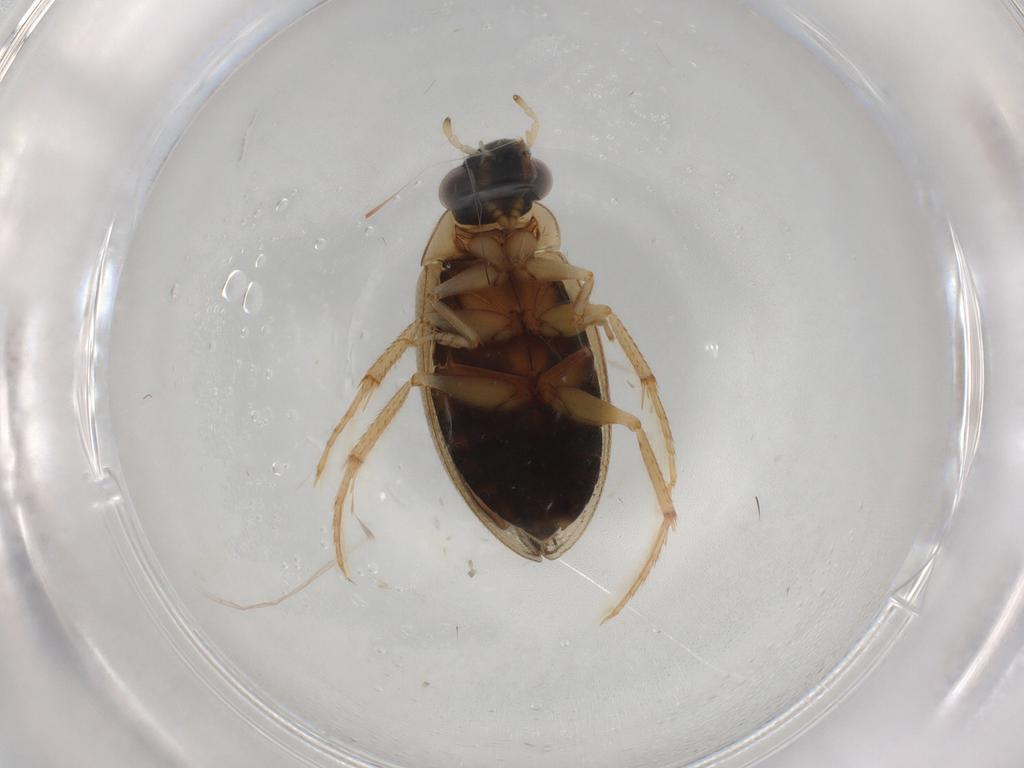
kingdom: Animalia
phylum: Arthropoda
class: Insecta
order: Coleoptera
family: Hydrophilidae
